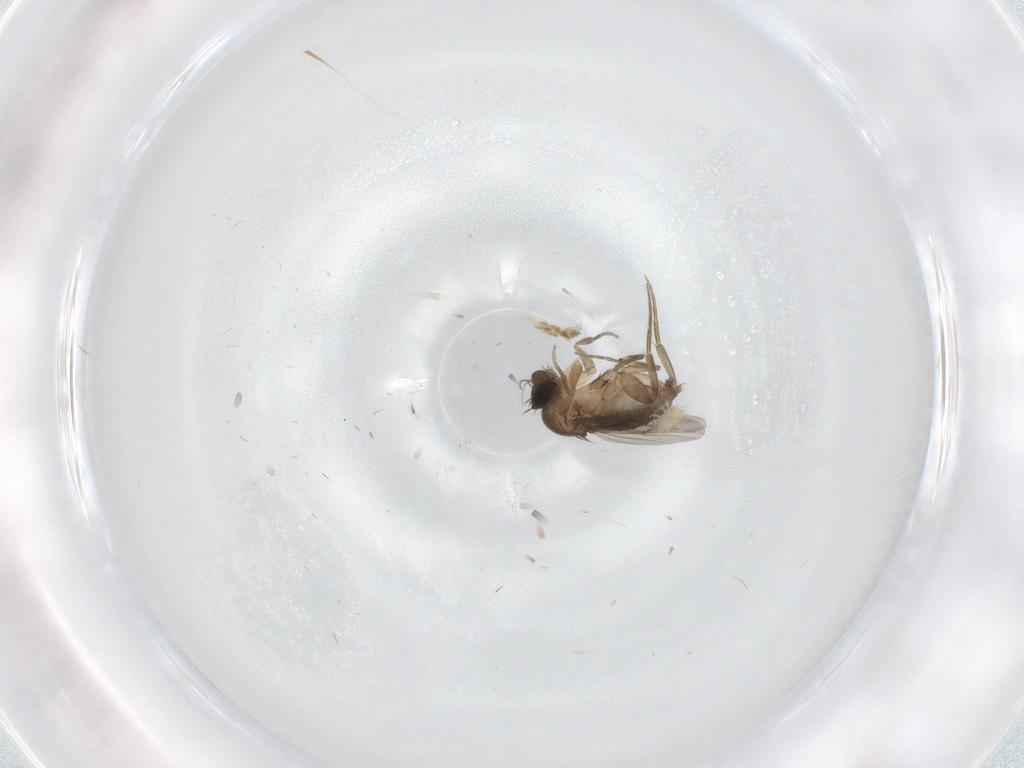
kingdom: Animalia
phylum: Arthropoda
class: Insecta
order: Diptera
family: Phoridae
